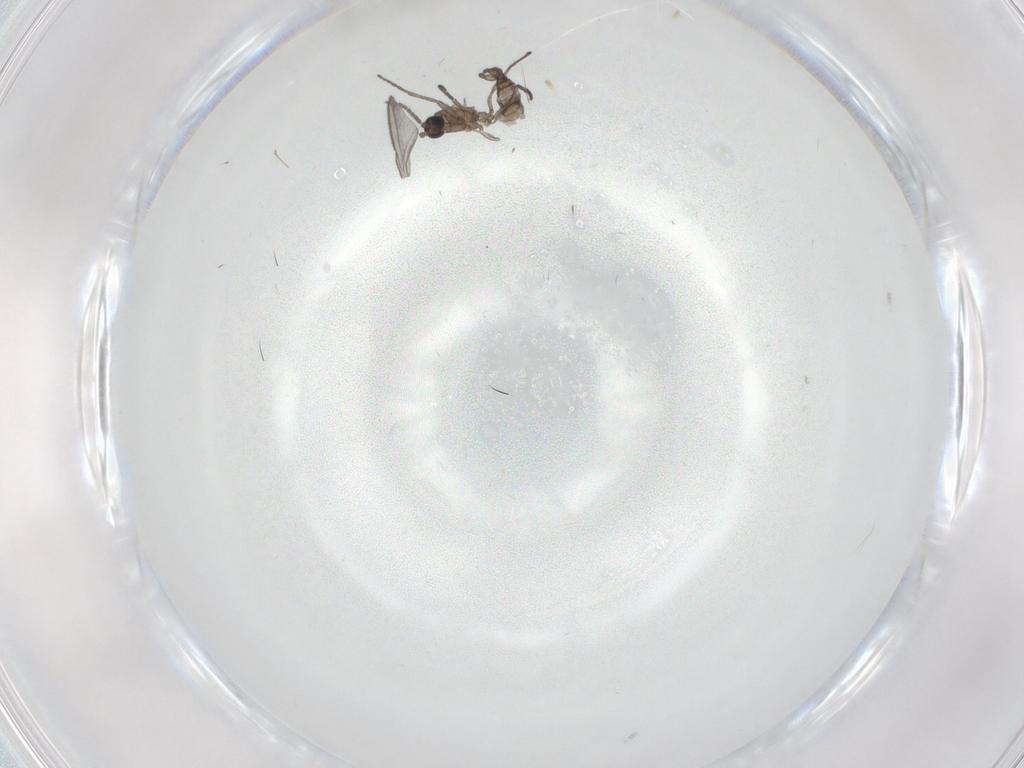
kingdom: Animalia
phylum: Arthropoda
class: Insecta
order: Diptera
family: Sciaridae
